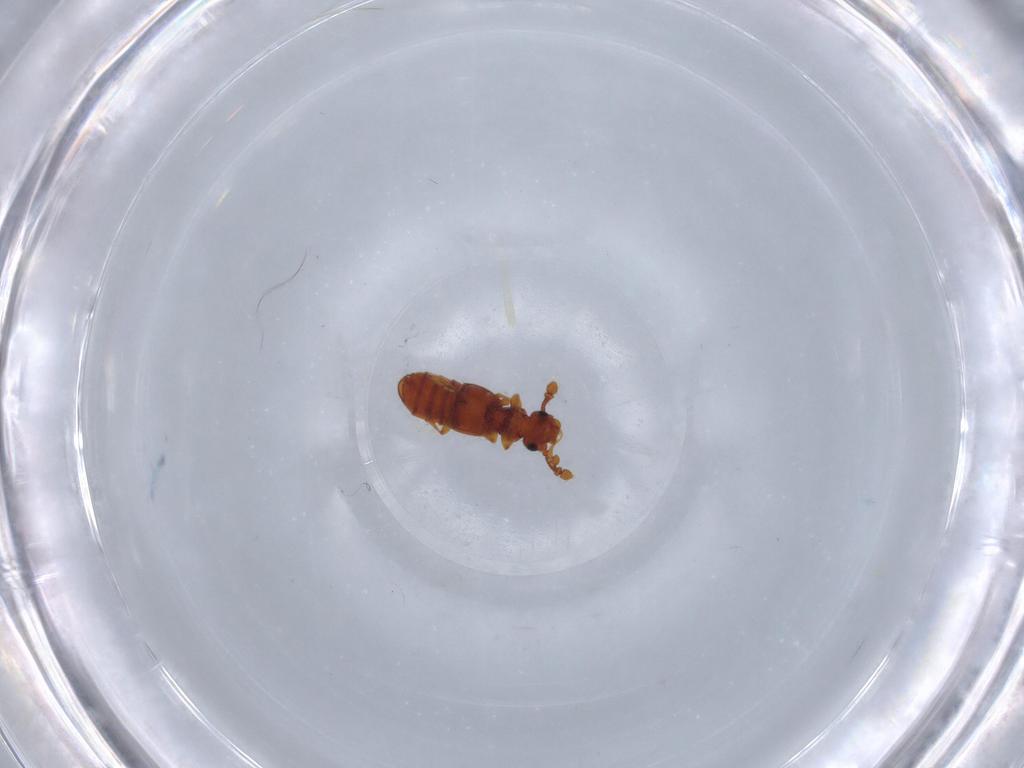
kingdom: Animalia
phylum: Arthropoda
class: Insecta
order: Coleoptera
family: Staphylinidae
